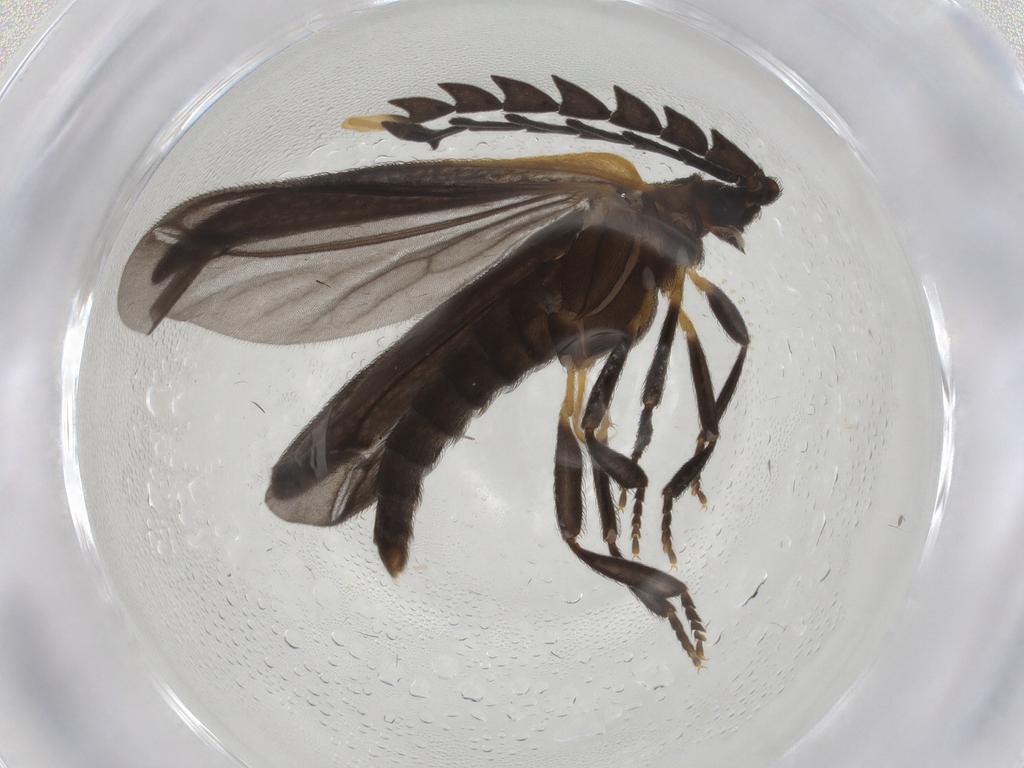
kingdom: Animalia
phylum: Arthropoda
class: Insecta
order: Coleoptera
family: Lycidae
